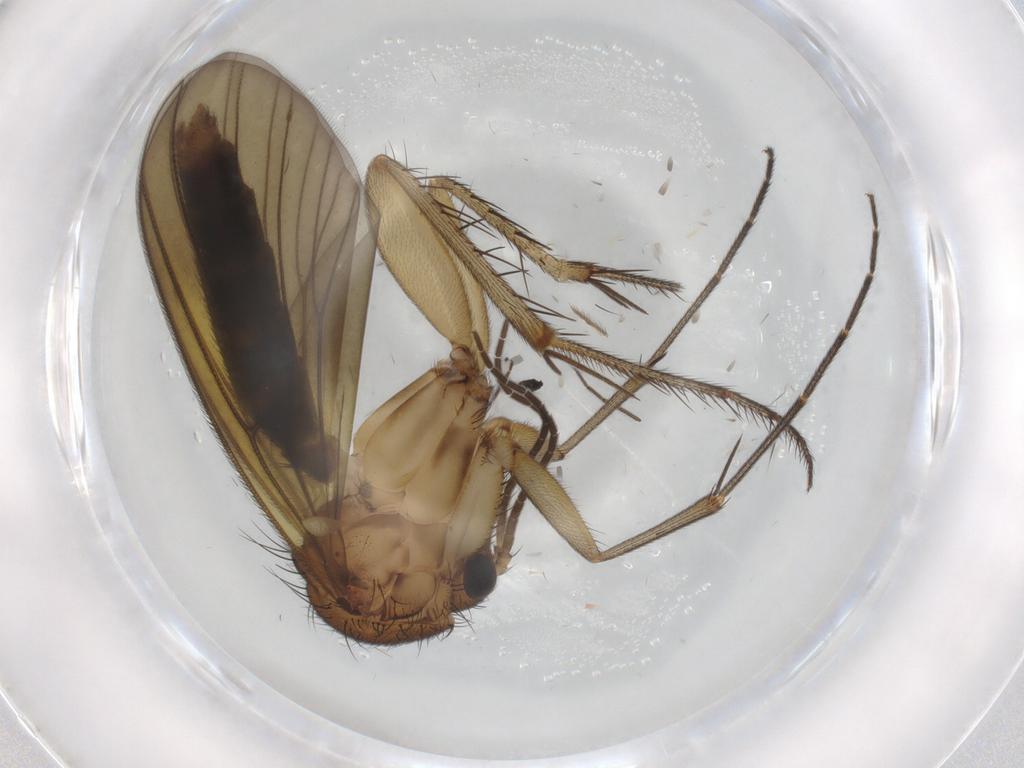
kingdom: Animalia
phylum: Arthropoda
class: Insecta
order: Diptera
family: Mycetophilidae
